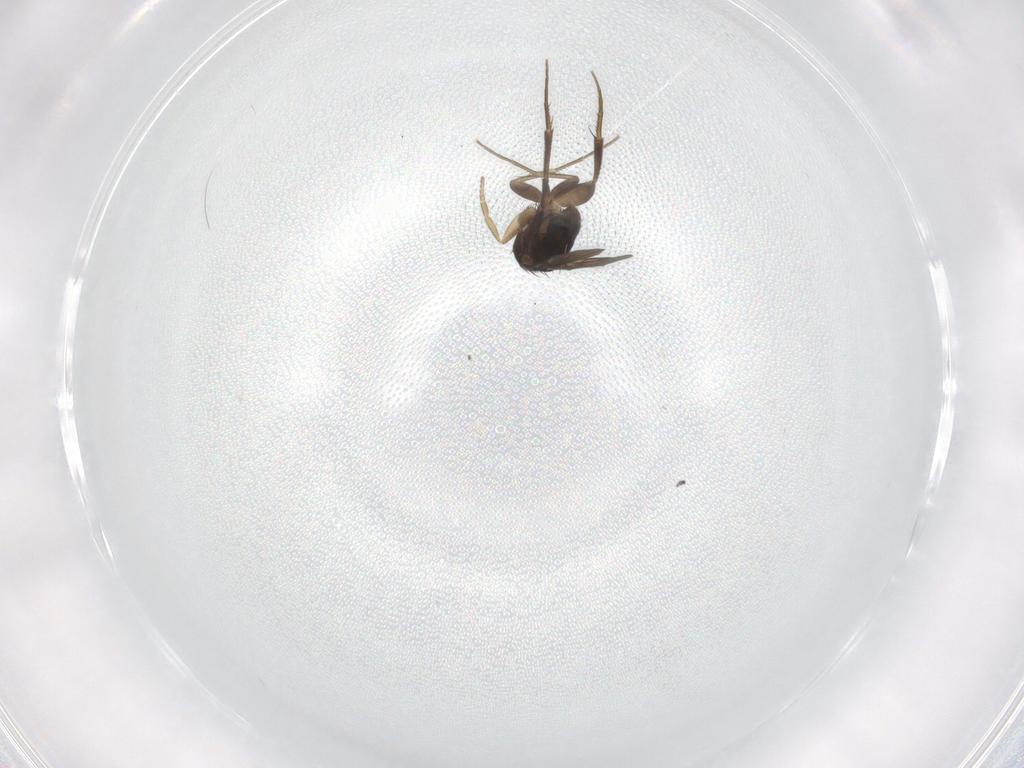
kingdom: Animalia
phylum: Arthropoda
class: Insecta
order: Diptera
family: Phoridae
